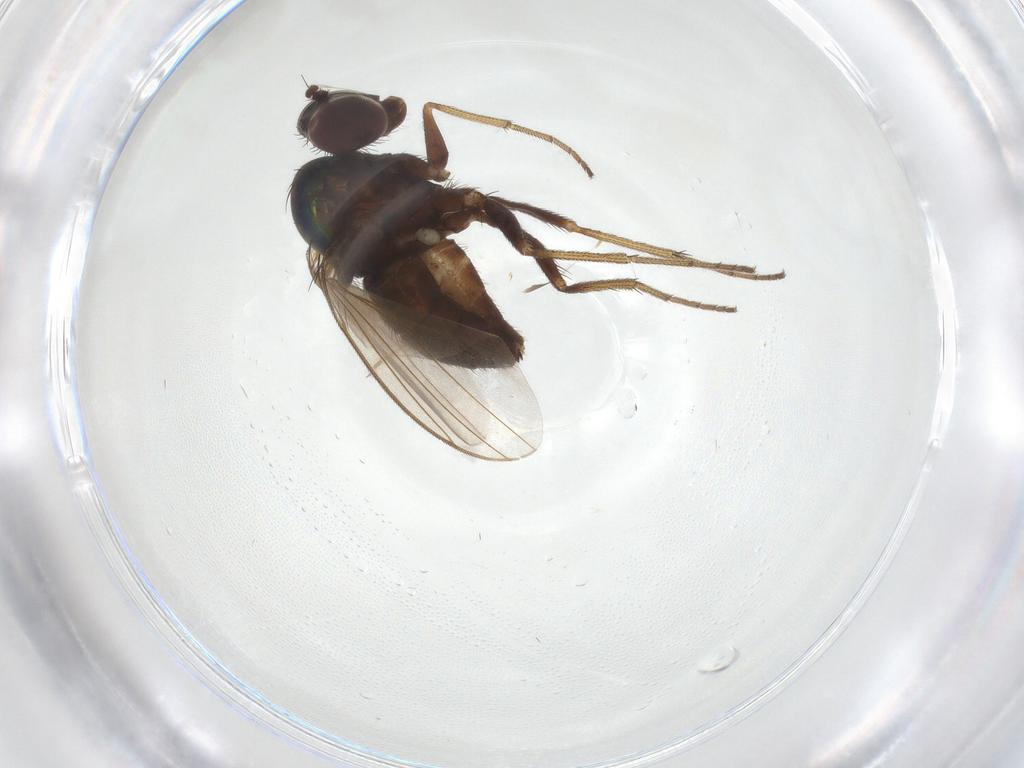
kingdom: Animalia
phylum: Arthropoda
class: Insecta
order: Diptera
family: Dolichopodidae
